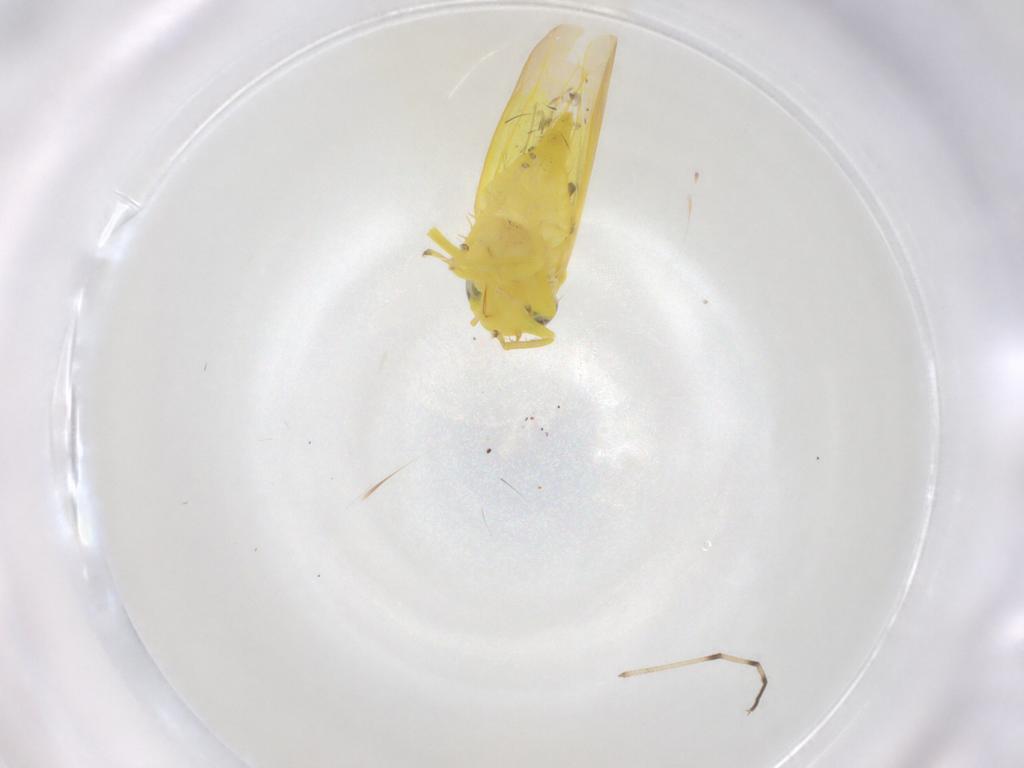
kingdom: Animalia
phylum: Arthropoda
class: Insecta
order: Hemiptera
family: Cicadellidae
